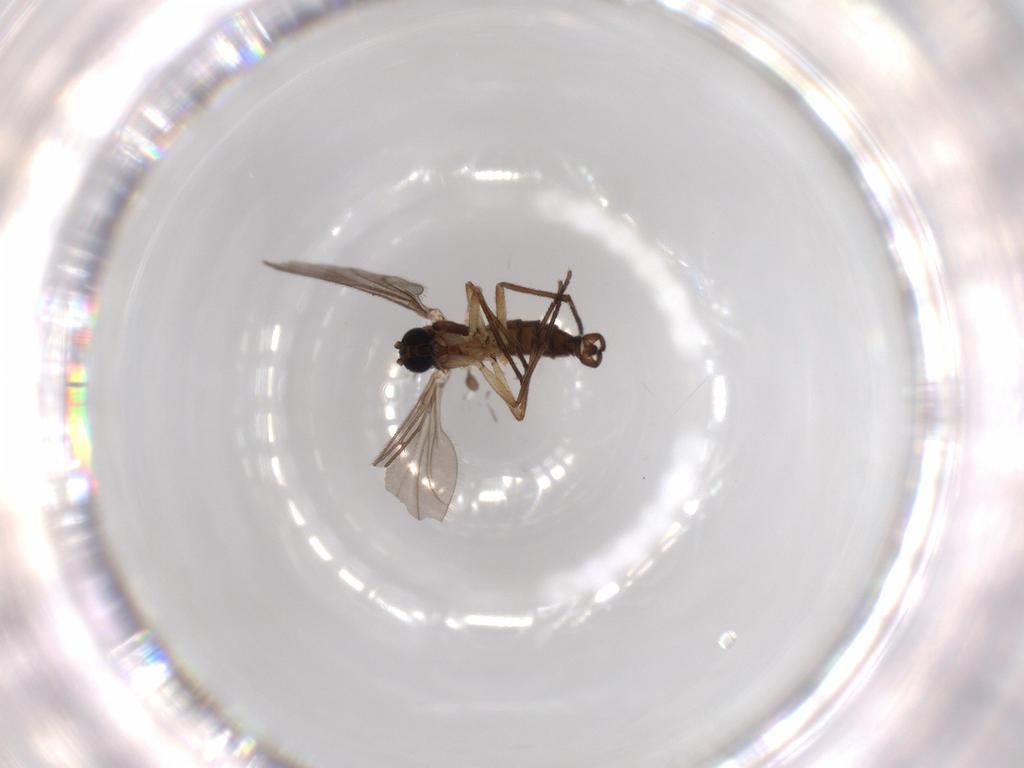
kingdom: Animalia
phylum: Arthropoda
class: Insecta
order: Diptera
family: Sciaridae
